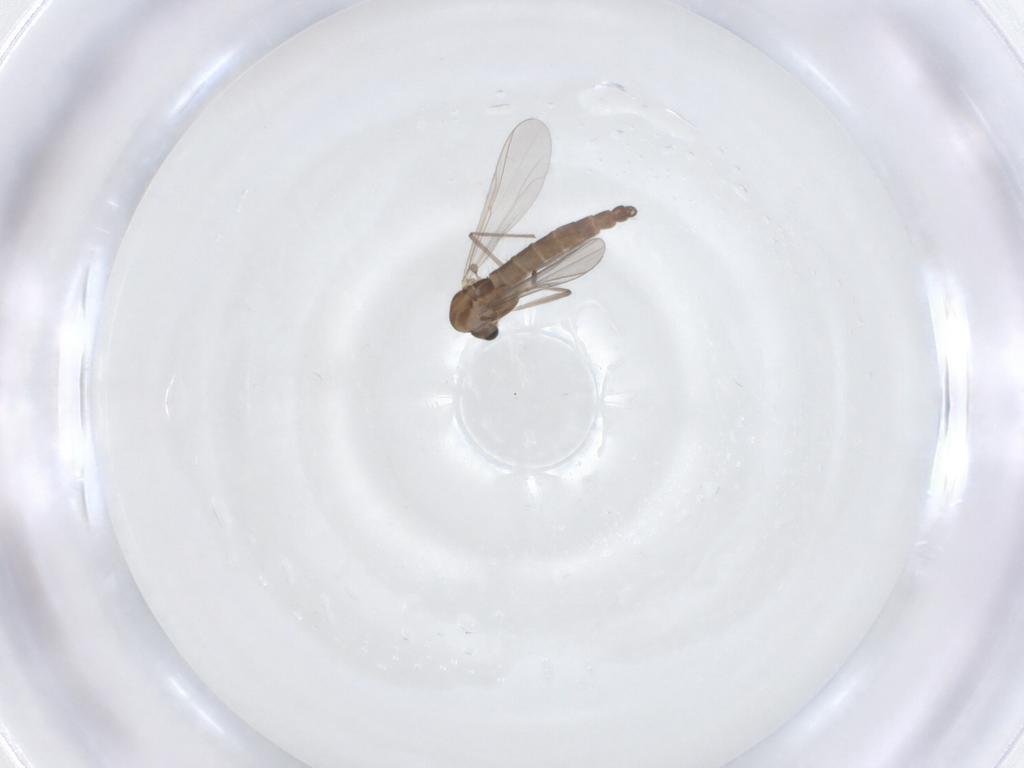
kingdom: Animalia
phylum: Arthropoda
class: Insecta
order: Diptera
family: Chironomidae
